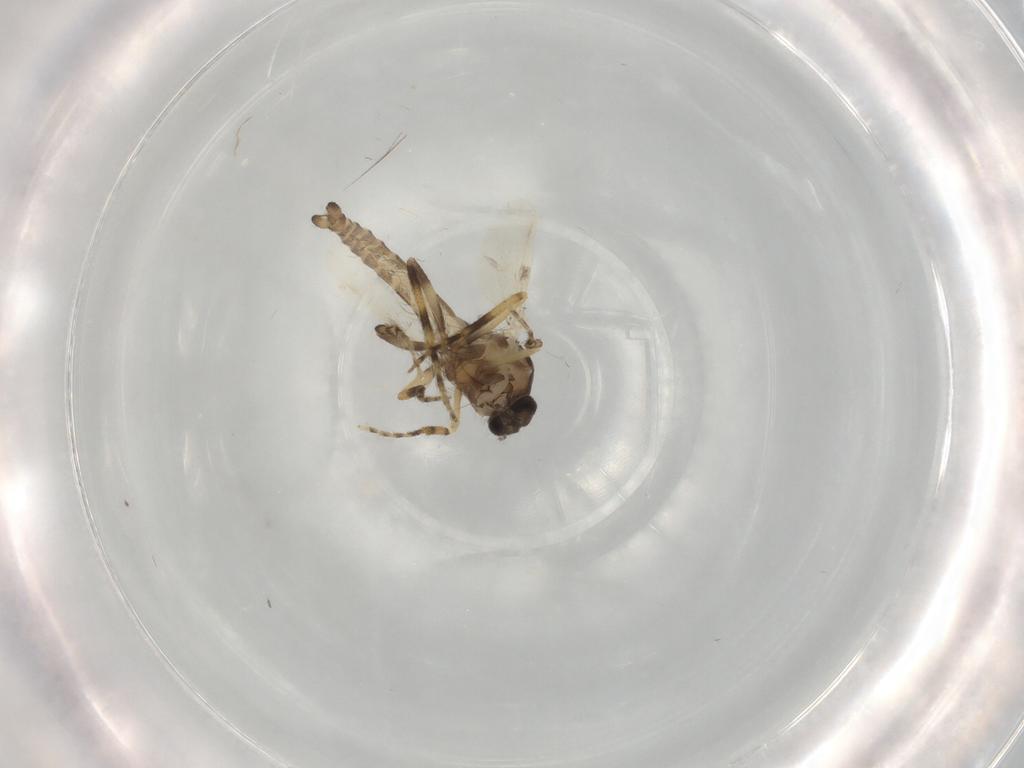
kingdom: Animalia
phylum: Arthropoda
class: Insecta
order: Diptera
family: Ceratopogonidae
